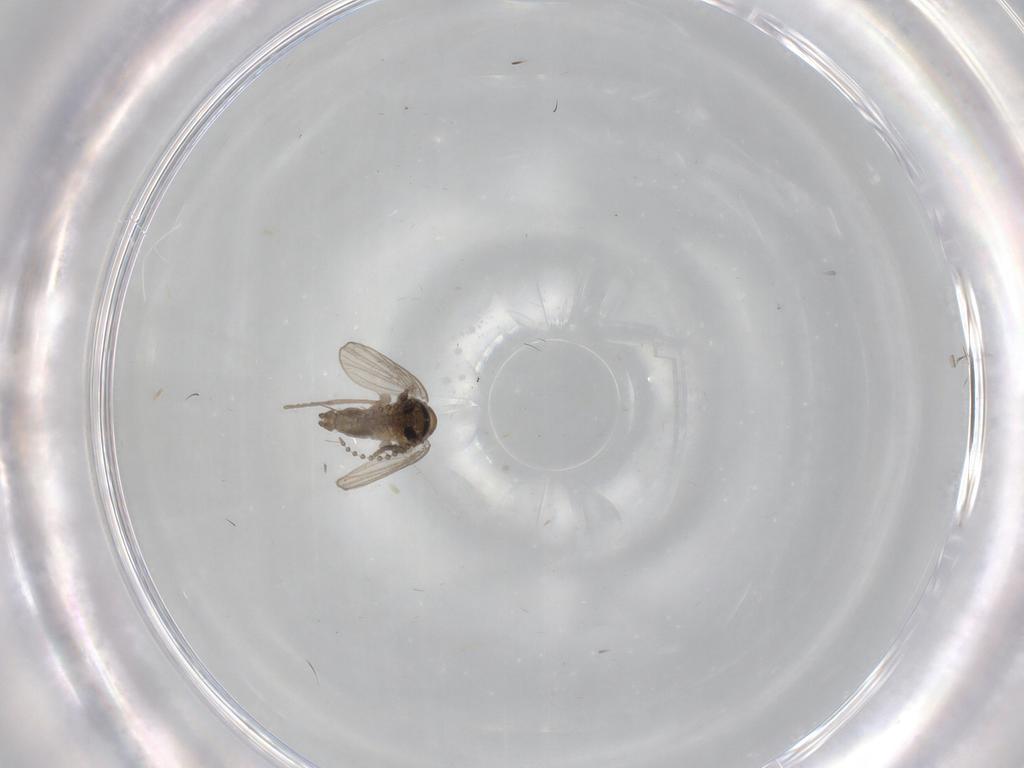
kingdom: Animalia
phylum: Arthropoda
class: Insecta
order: Diptera
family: Psychodidae
